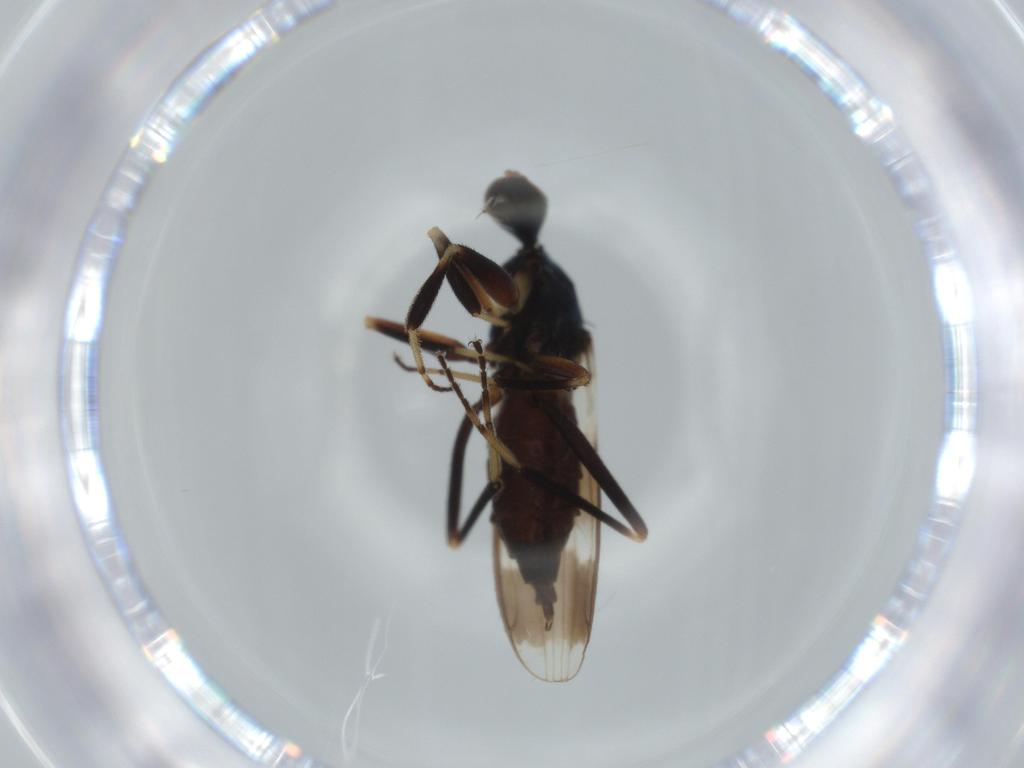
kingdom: Animalia
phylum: Arthropoda
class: Insecta
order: Diptera
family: Hybotidae
